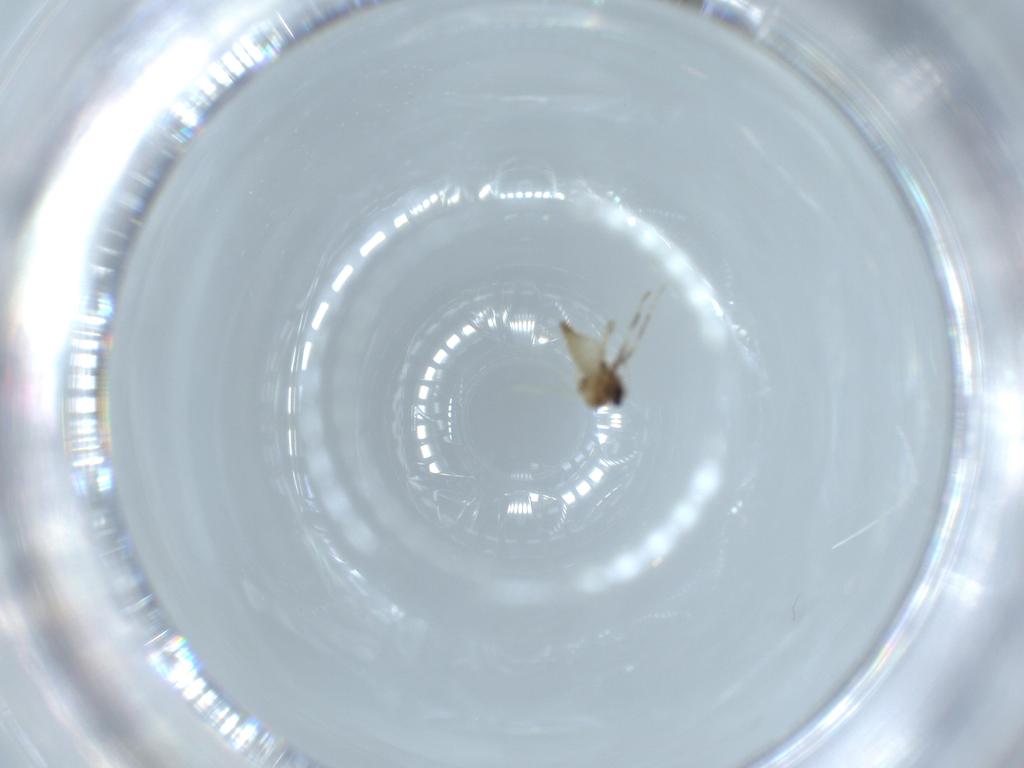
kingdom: Animalia
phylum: Arthropoda
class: Insecta
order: Diptera
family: Ceratopogonidae
